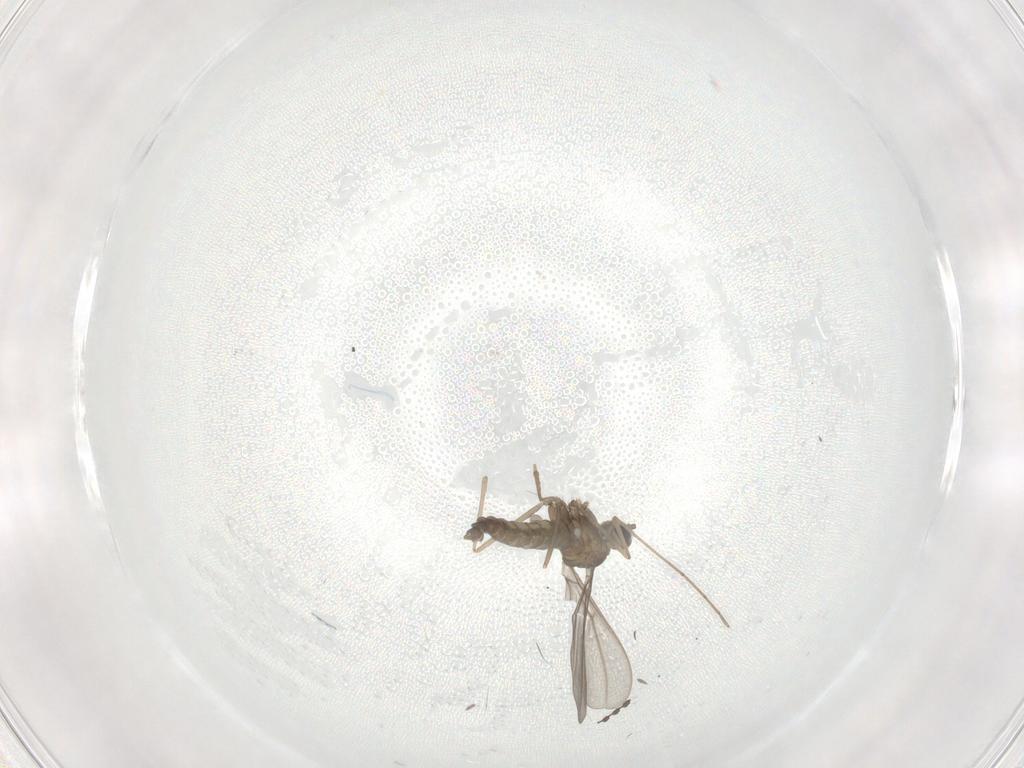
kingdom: Animalia
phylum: Arthropoda
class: Insecta
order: Diptera
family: Cecidomyiidae
